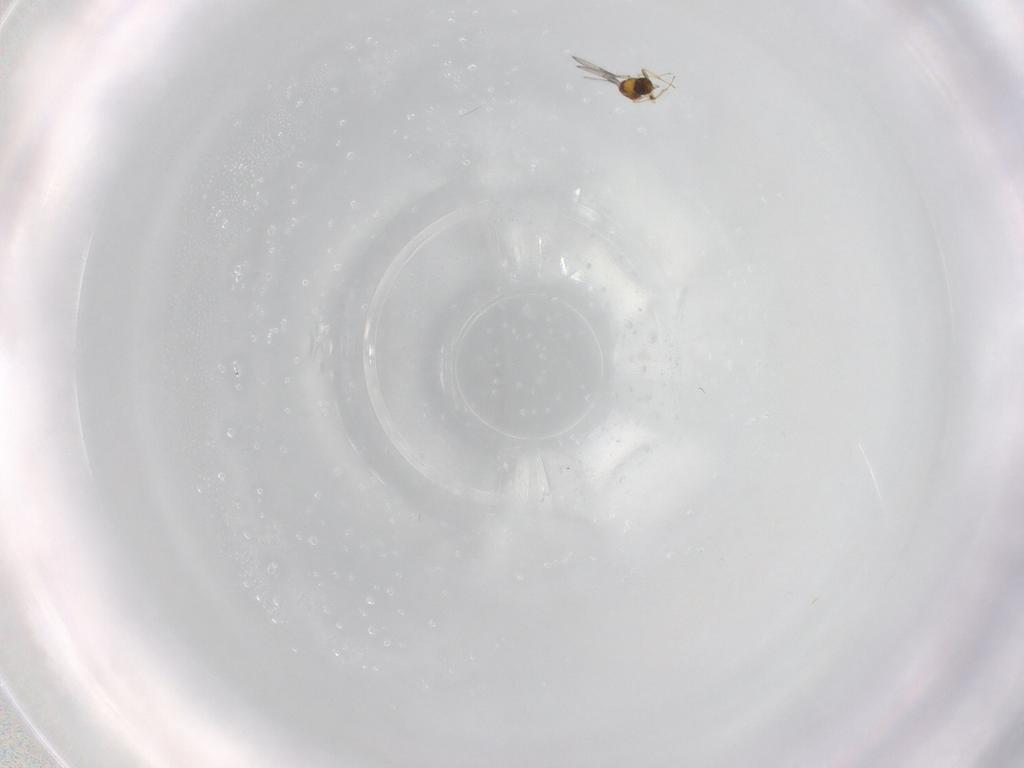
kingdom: Animalia
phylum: Arthropoda
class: Insecta
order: Hymenoptera
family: Trichogrammatidae
